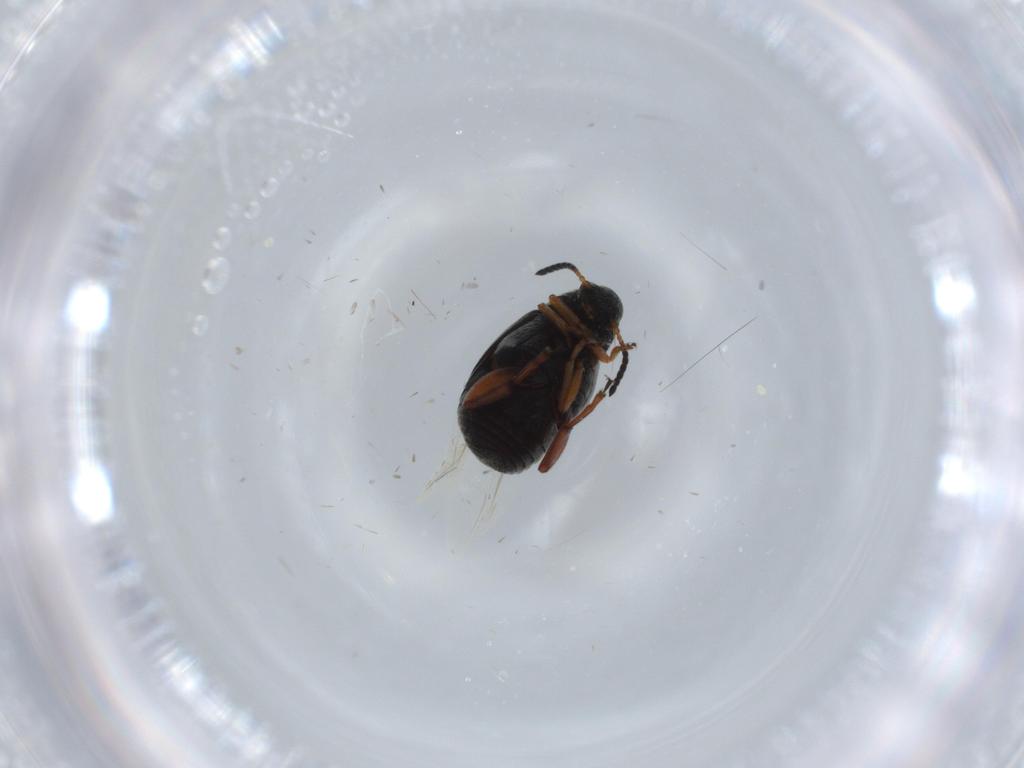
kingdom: Animalia
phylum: Arthropoda
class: Insecta
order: Coleoptera
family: Chrysomelidae
